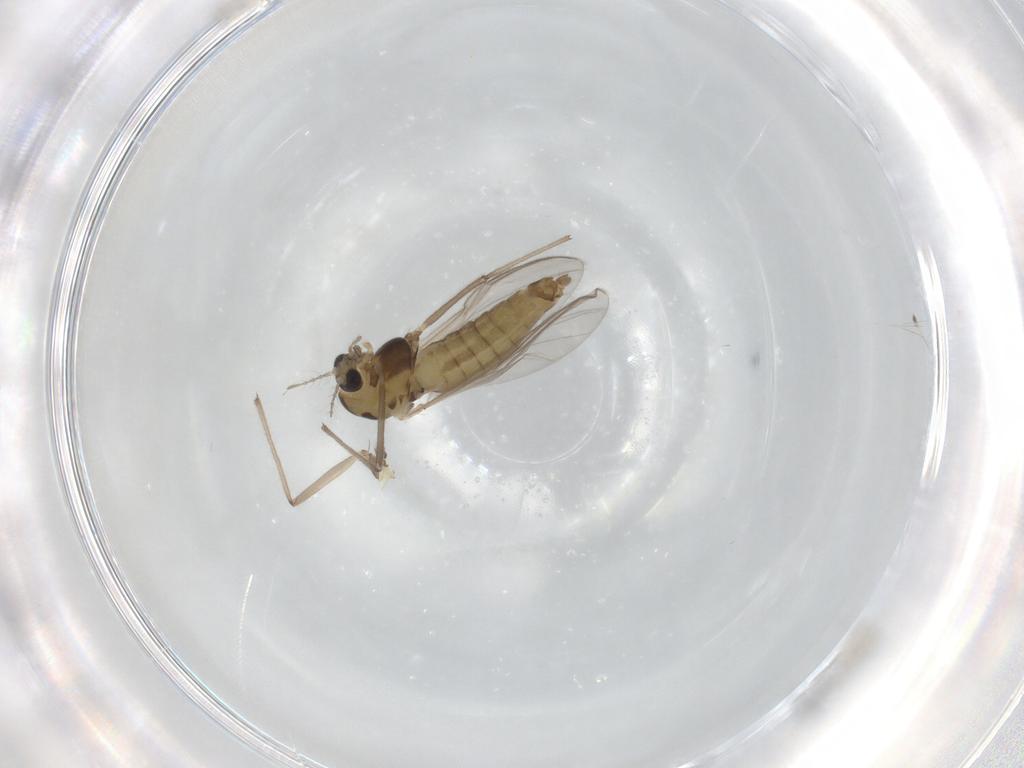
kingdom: Animalia
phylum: Arthropoda
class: Insecta
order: Diptera
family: Chironomidae
